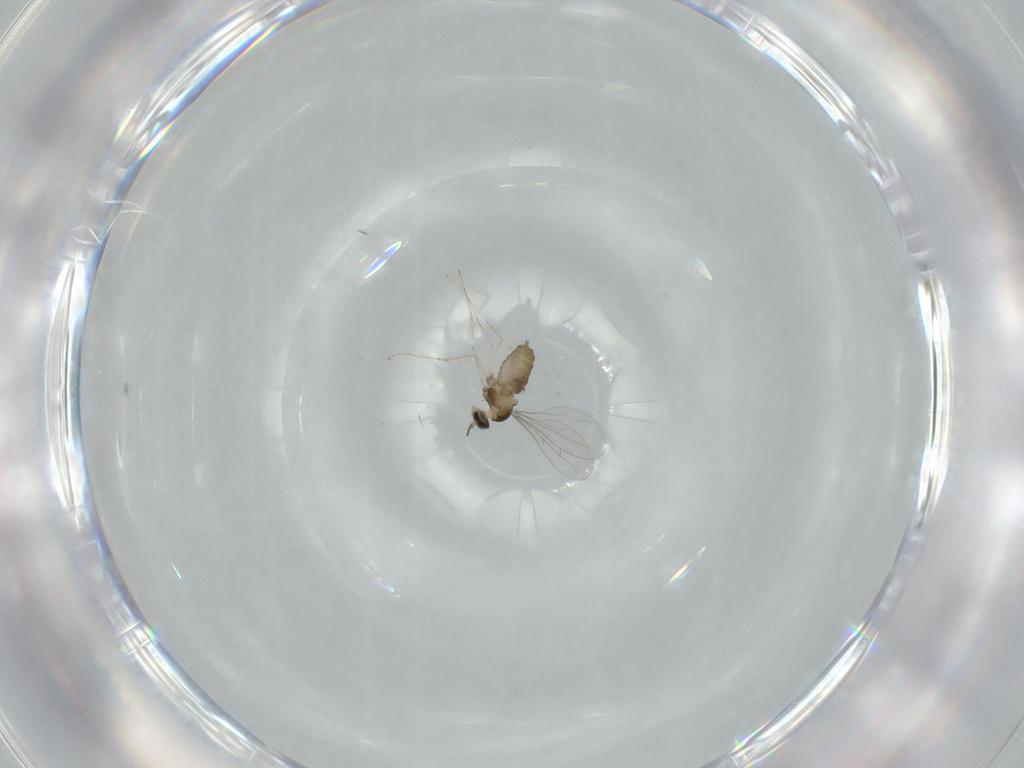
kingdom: Animalia
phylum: Arthropoda
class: Insecta
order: Diptera
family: Cecidomyiidae
